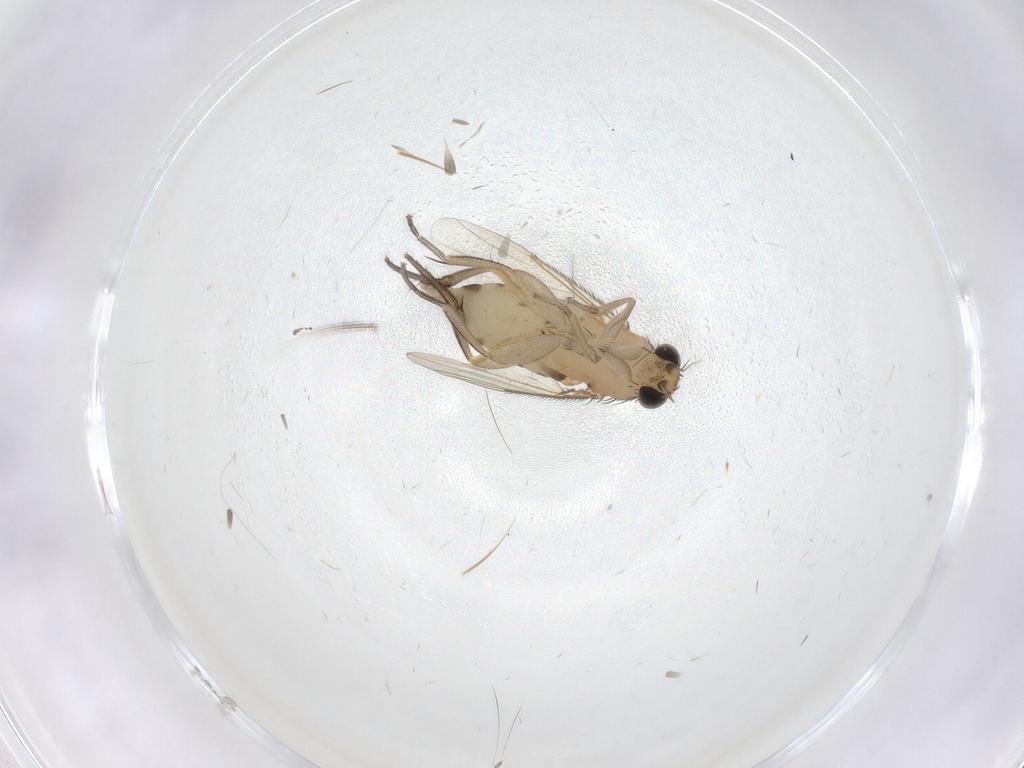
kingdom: Animalia
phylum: Arthropoda
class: Insecta
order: Diptera
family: Phoridae
